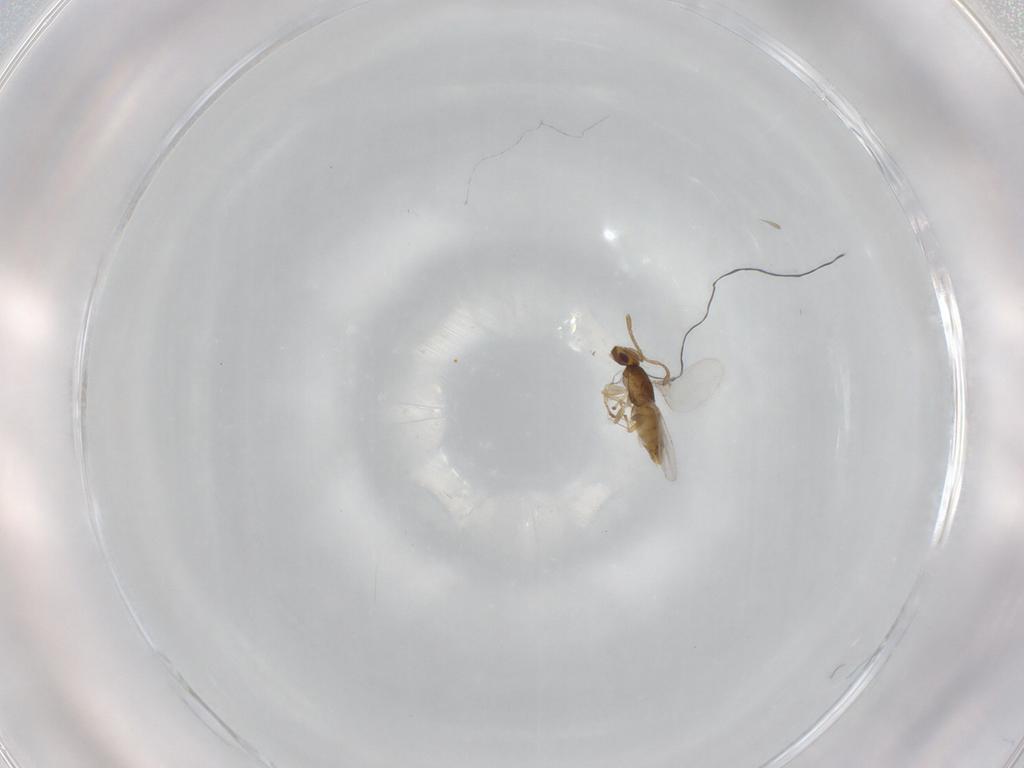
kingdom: Animalia
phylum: Arthropoda
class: Insecta
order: Hymenoptera
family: Encyrtidae
